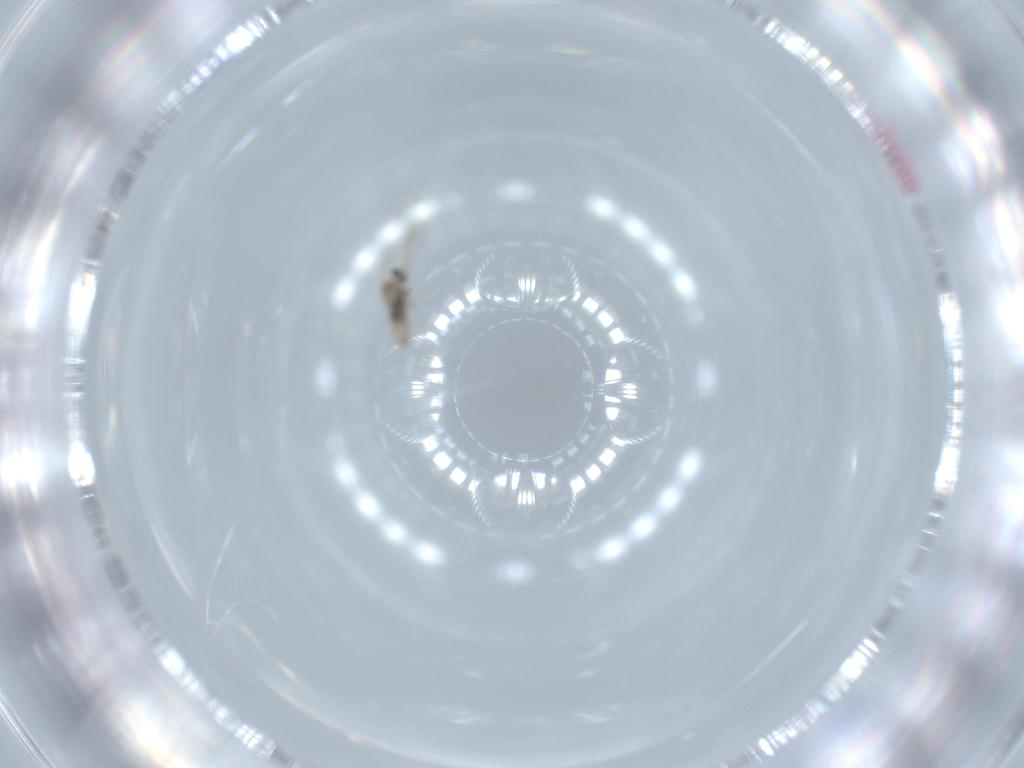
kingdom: Animalia
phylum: Arthropoda
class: Insecta
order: Diptera
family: Cecidomyiidae
